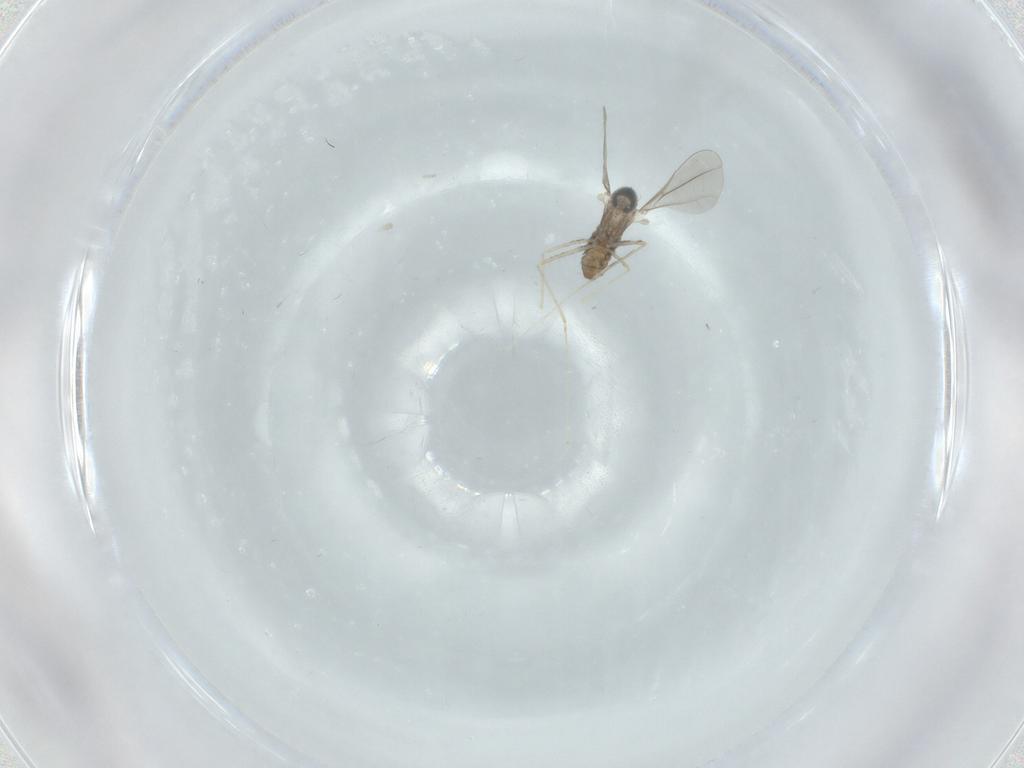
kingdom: Animalia
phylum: Arthropoda
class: Insecta
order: Diptera
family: Cecidomyiidae
